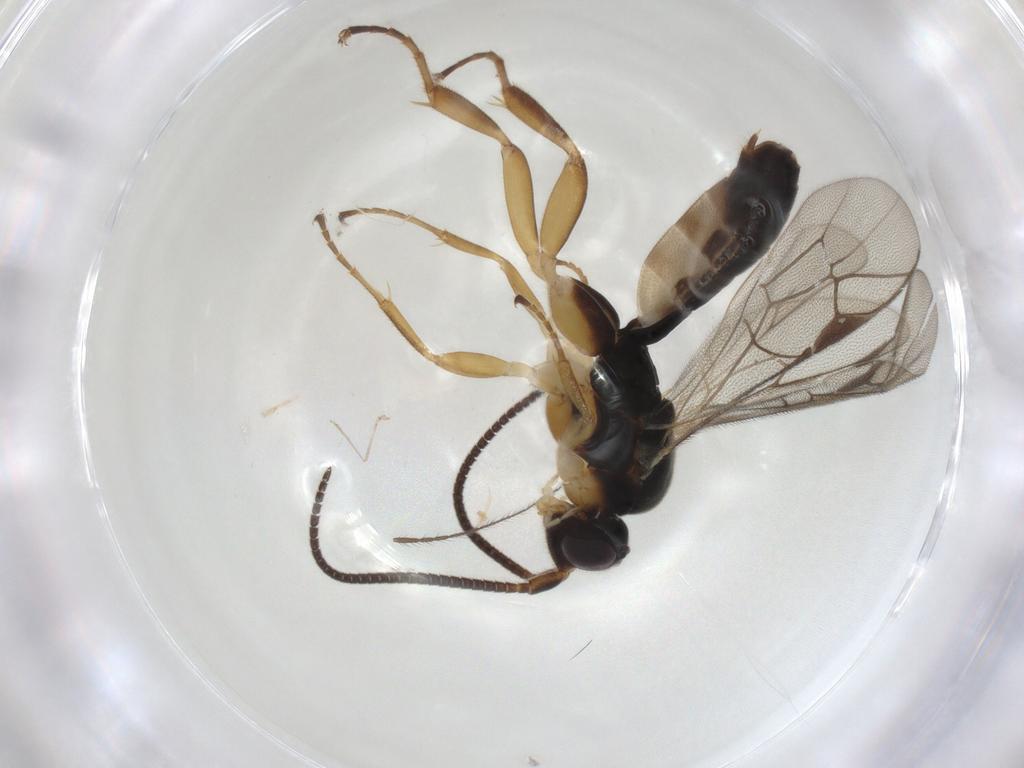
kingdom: Animalia
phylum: Arthropoda
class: Insecta
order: Hymenoptera
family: Ichneumonidae
